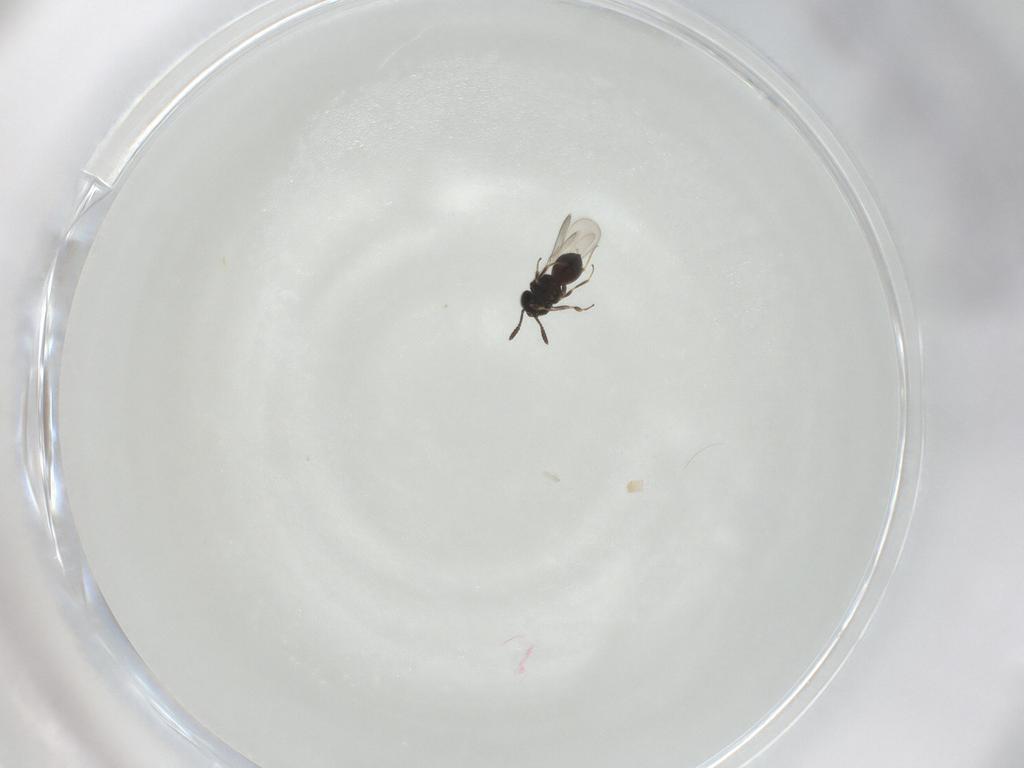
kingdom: Animalia
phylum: Arthropoda
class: Insecta
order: Hymenoptera
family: Scelionidae
